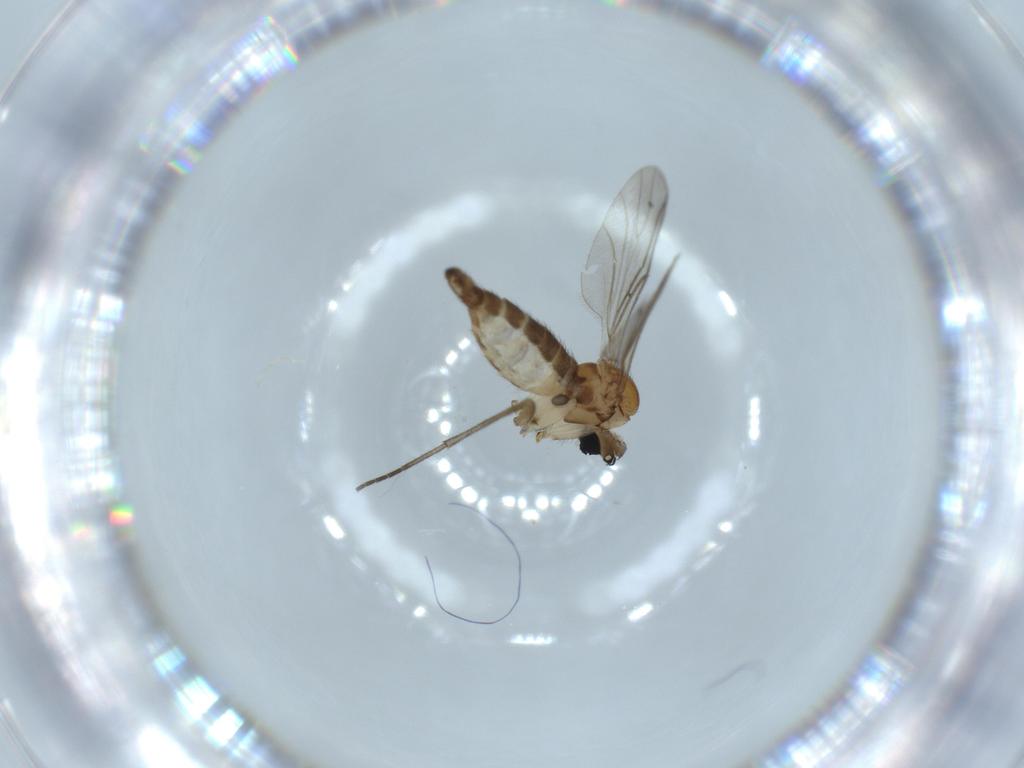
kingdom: Animalia
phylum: Arthropoda
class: Insecta
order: Diptera
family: Sciaridae
